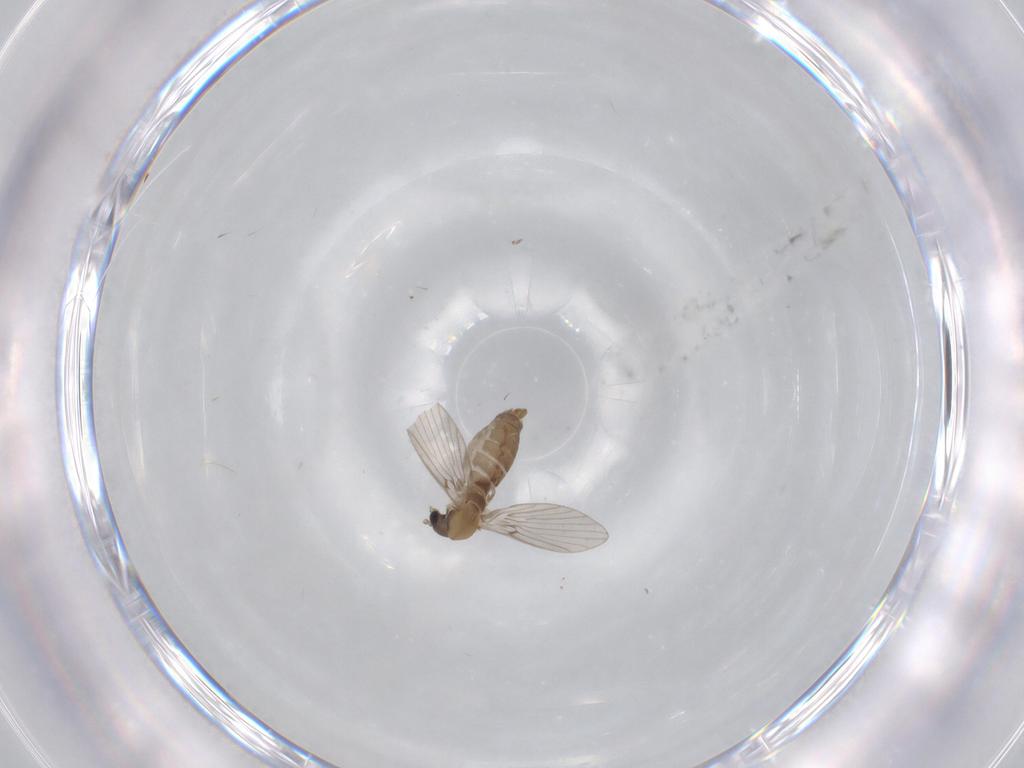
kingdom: Animalia
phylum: Arthropoda
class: Insecta
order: Diptera
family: Psychodidae
